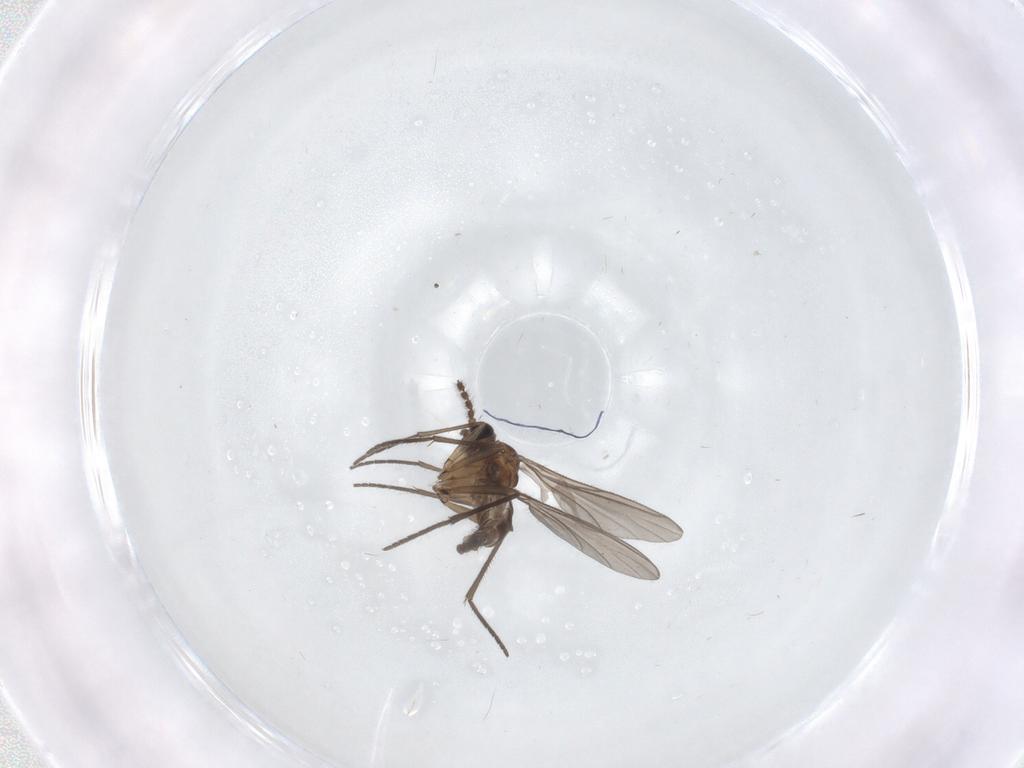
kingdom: Animalia
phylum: Arthropoda
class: Insecta
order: Diptera
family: Sciaridae
